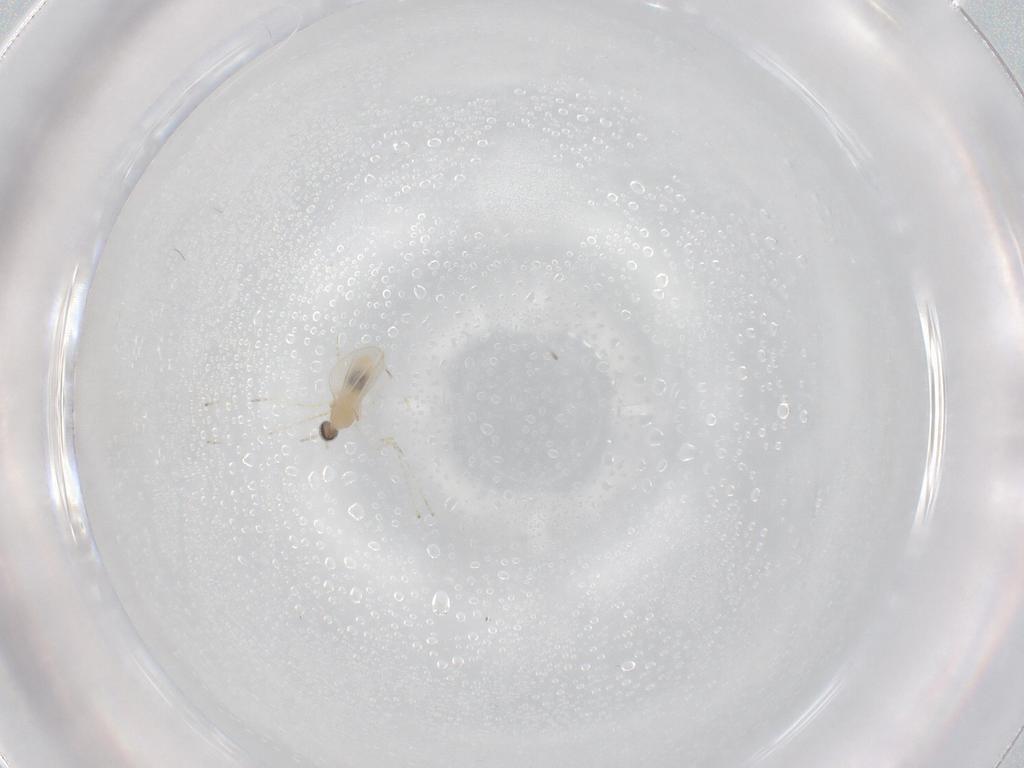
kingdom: Animalia
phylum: Arthropoda
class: Insecta
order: Diptera
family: Sciaridae
